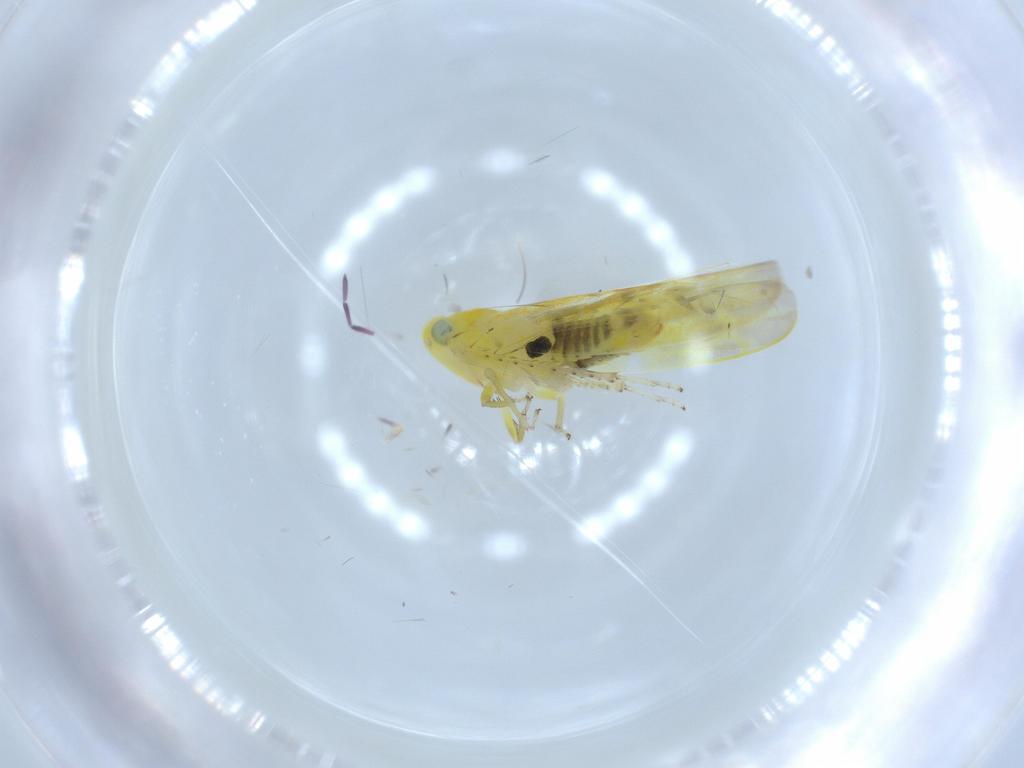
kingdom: Animalia
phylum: Arthropoda
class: Insecta
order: Hemiptera
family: Cicadellidae
